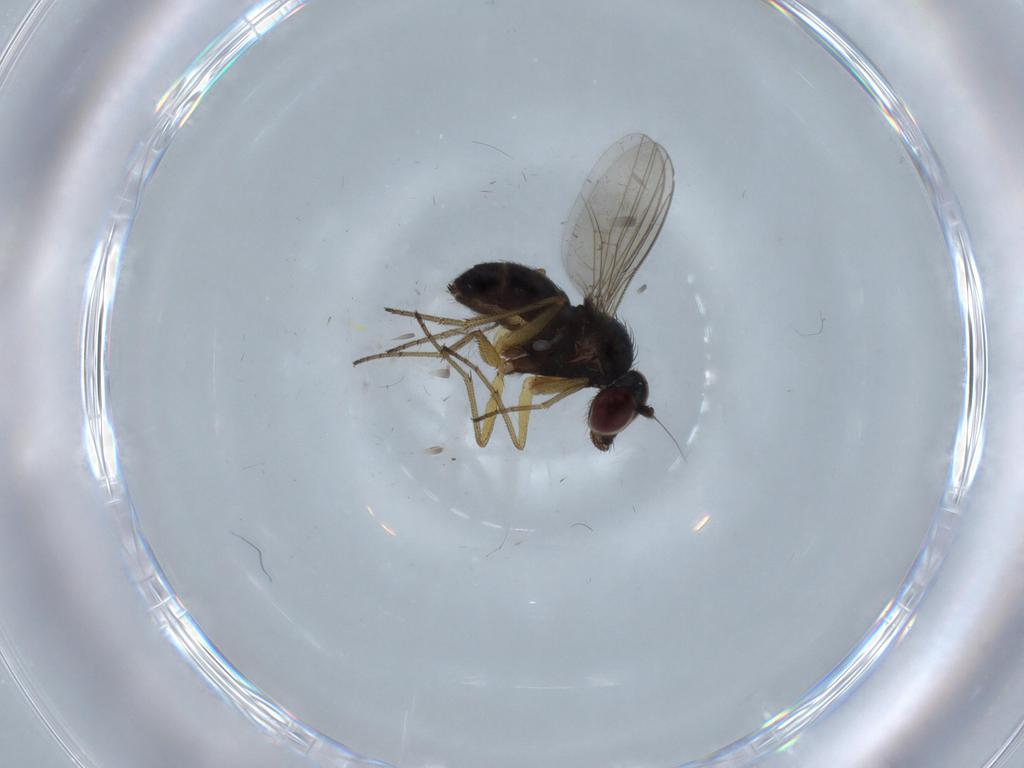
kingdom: Animalia
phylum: Arthropoda
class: Insecta
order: Diptera
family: Dolichopodidae
